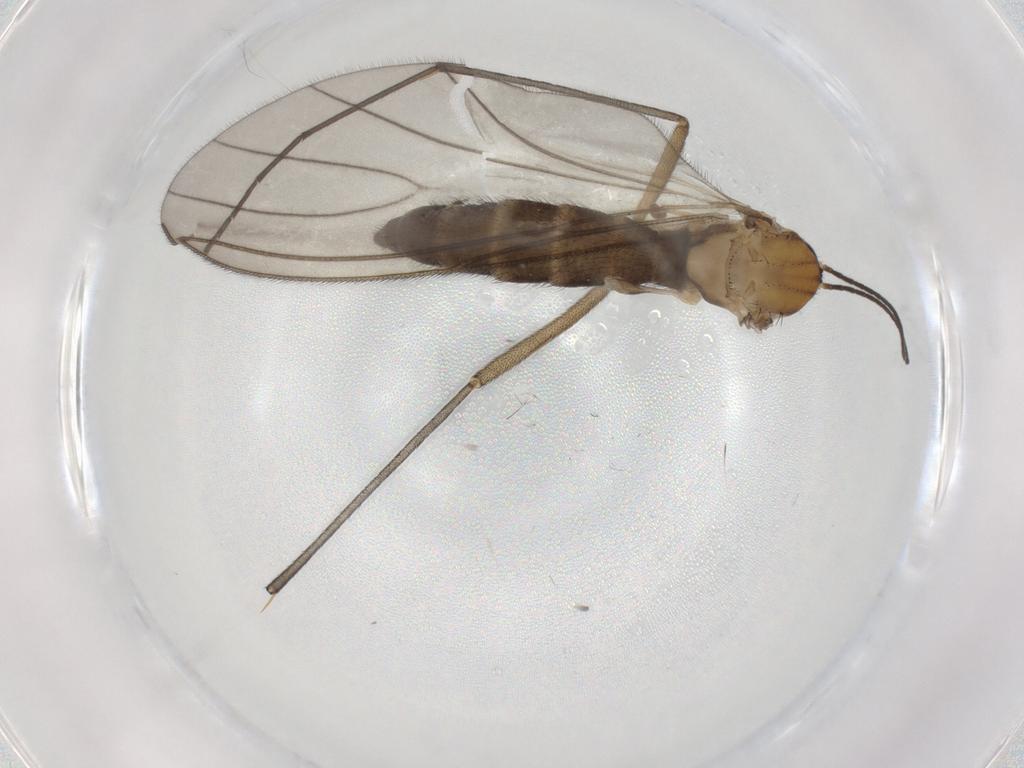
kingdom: Animalia
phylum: Arthropoda
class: Insecta
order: Diptera
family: Sciaridae
